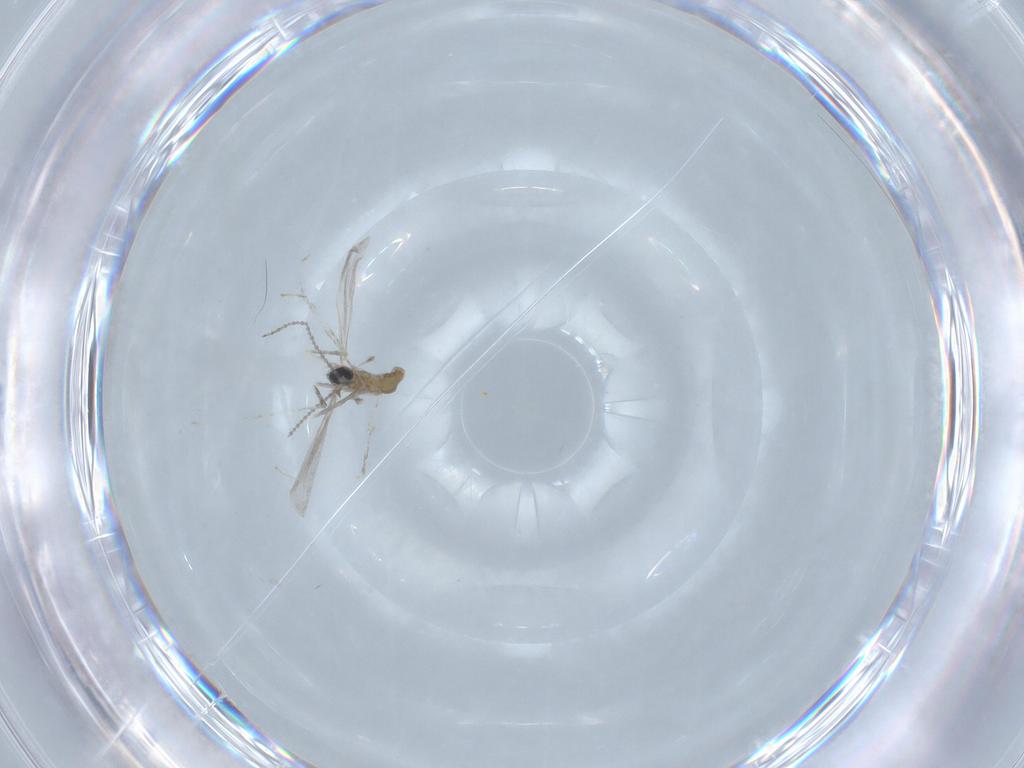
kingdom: Animalia
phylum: Arthropoda
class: Insecta
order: Diptera
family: Cecidomyiidae
